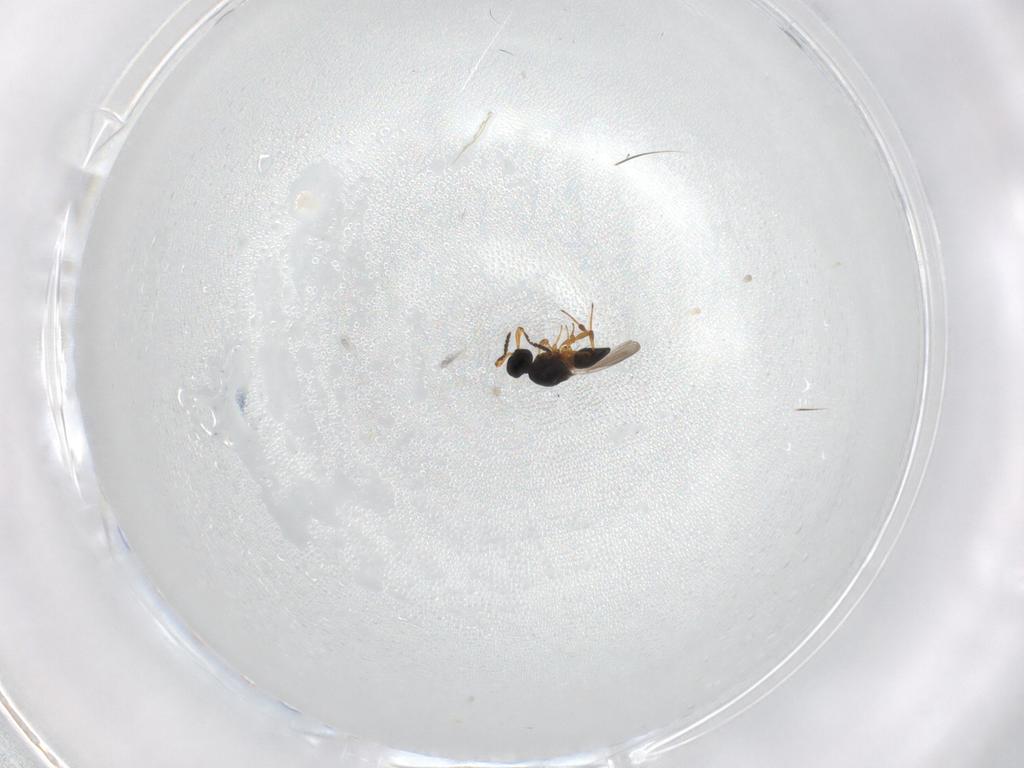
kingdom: Animalia
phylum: Arthropoda
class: Insecta
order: Hymenoptera
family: Platygastridae
